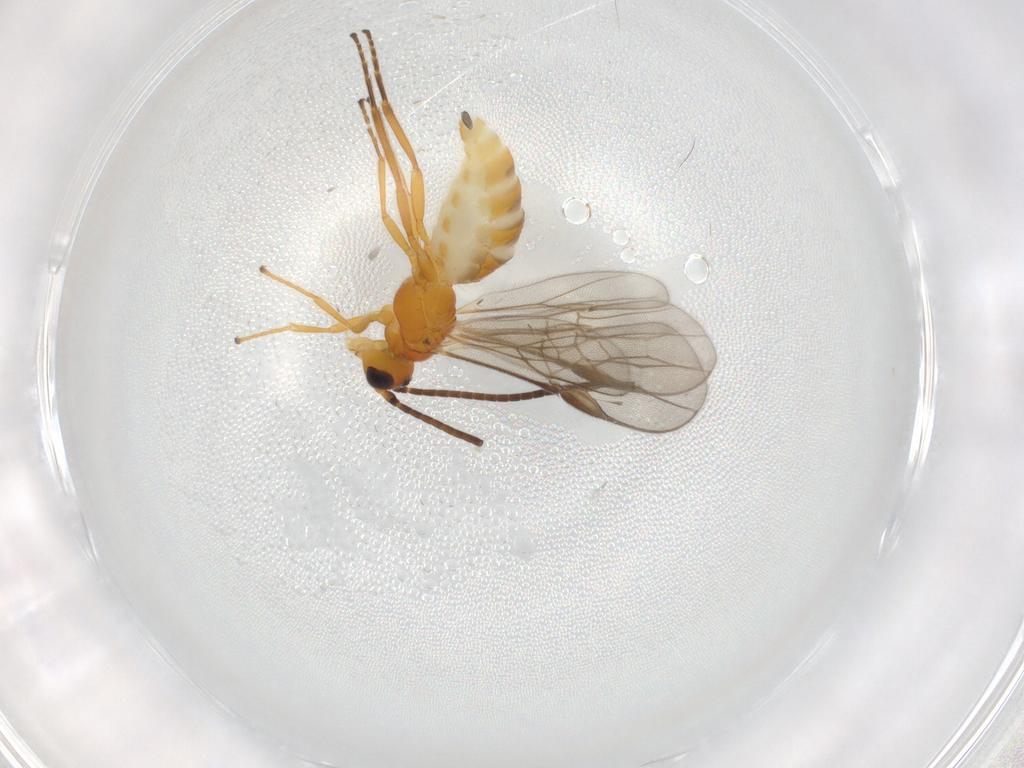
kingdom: Animalia
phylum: Arthropoda
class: Insecta
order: Hymenoptera
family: Braconidae
